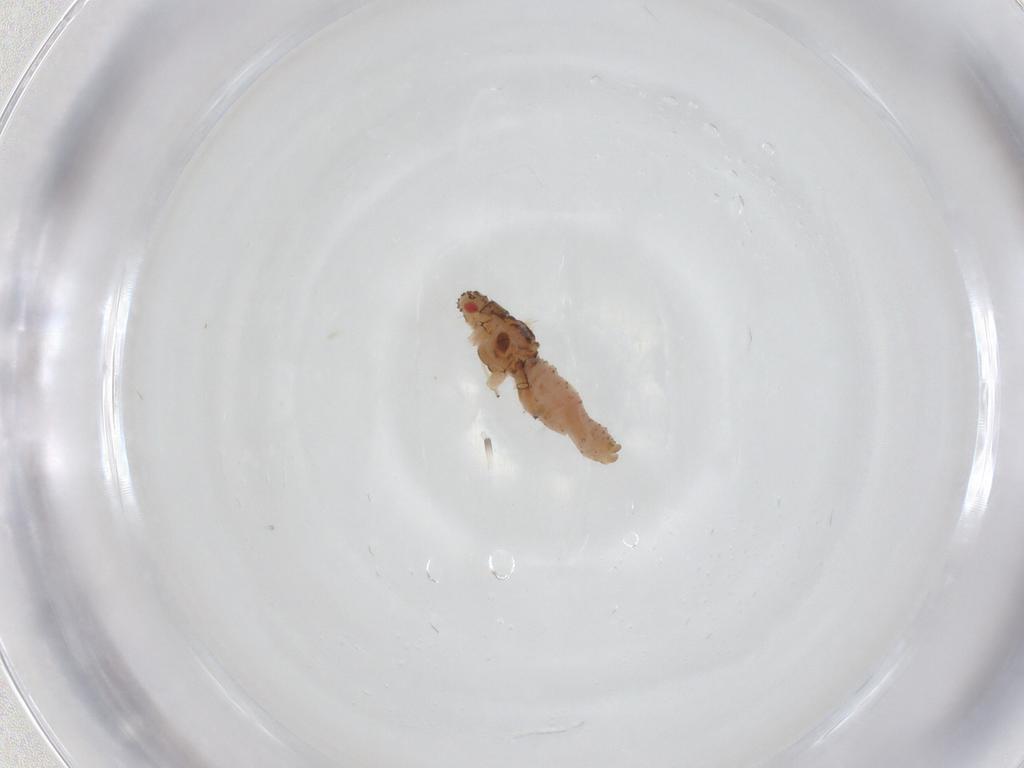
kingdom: Animalia
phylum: Arthropoda
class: Insecta
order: Hemiptera
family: Aphididae
